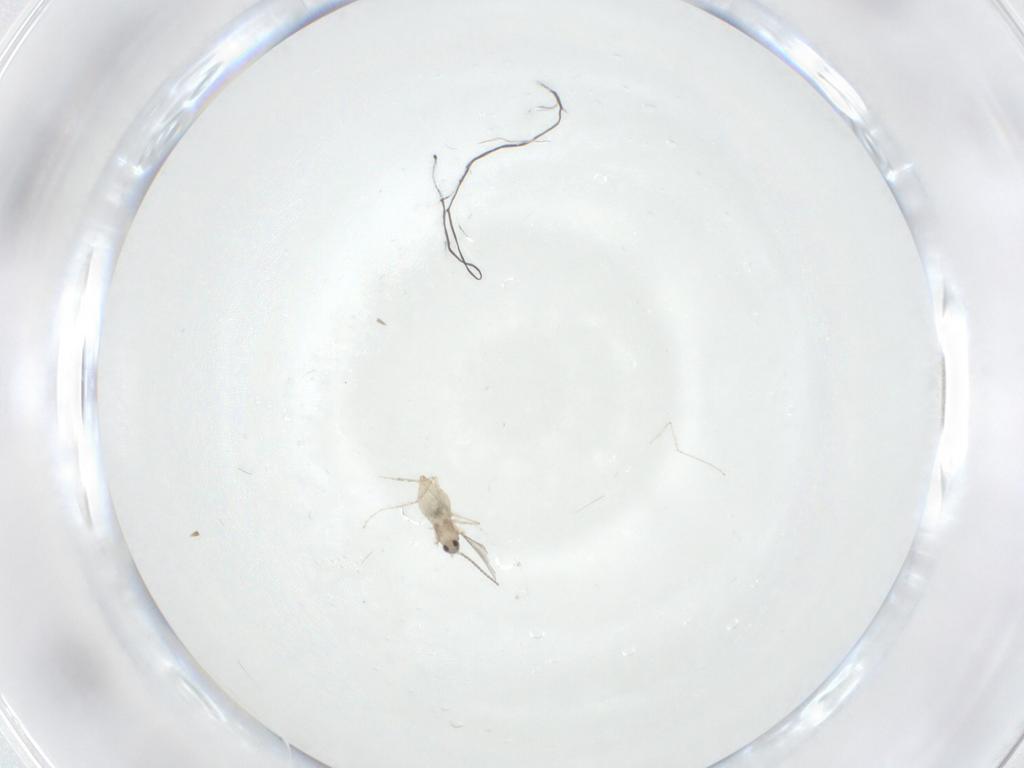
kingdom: Animalia
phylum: Arthropoda
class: Insecta
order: Diptera
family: Cecidomyiidae
